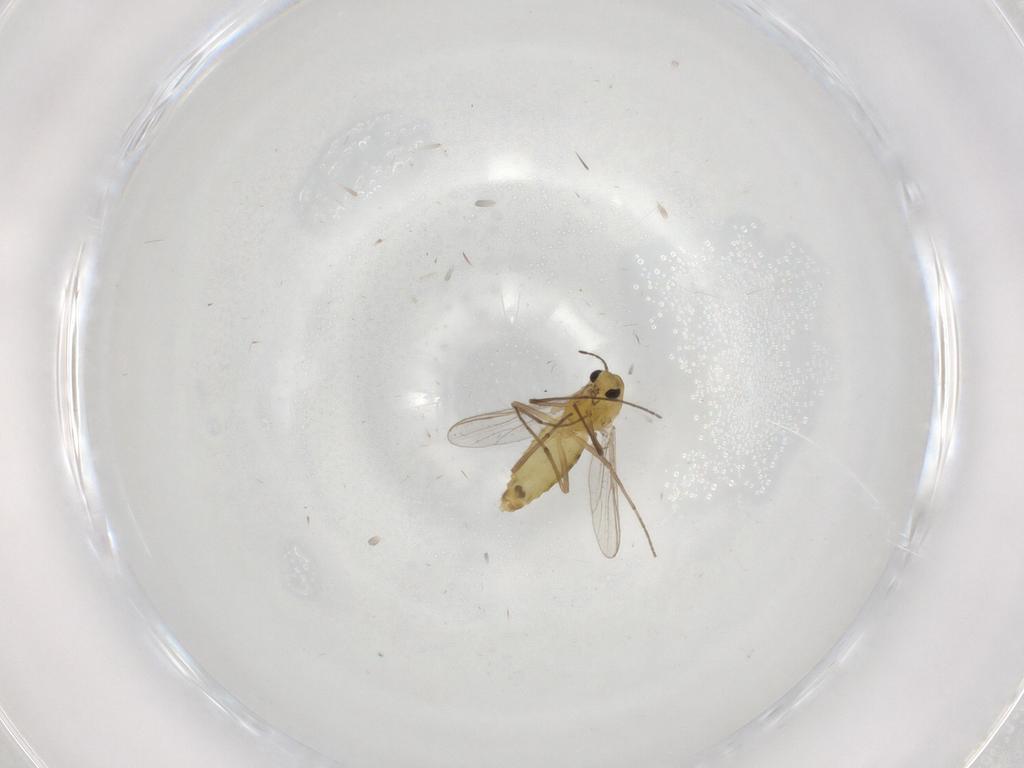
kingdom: Animalia
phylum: Arthropoda
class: Insecta
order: Diptera
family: Chironomidae
